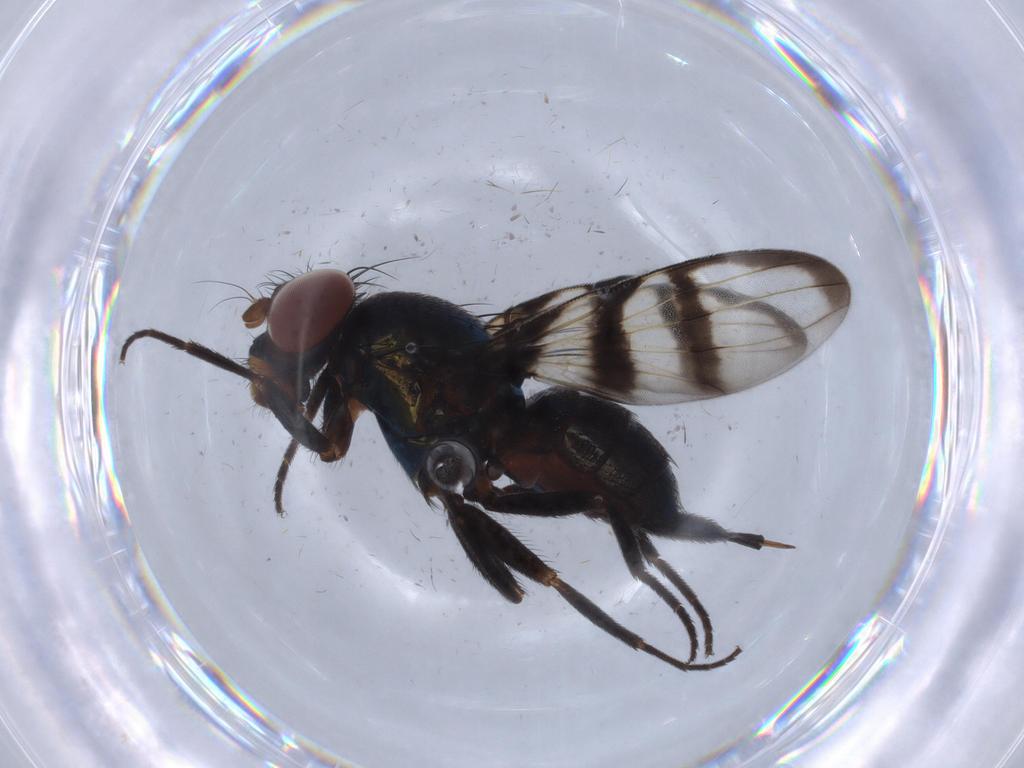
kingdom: Animalia
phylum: Arthropoda
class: Insecta
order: Diptera
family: Ulidiidae
